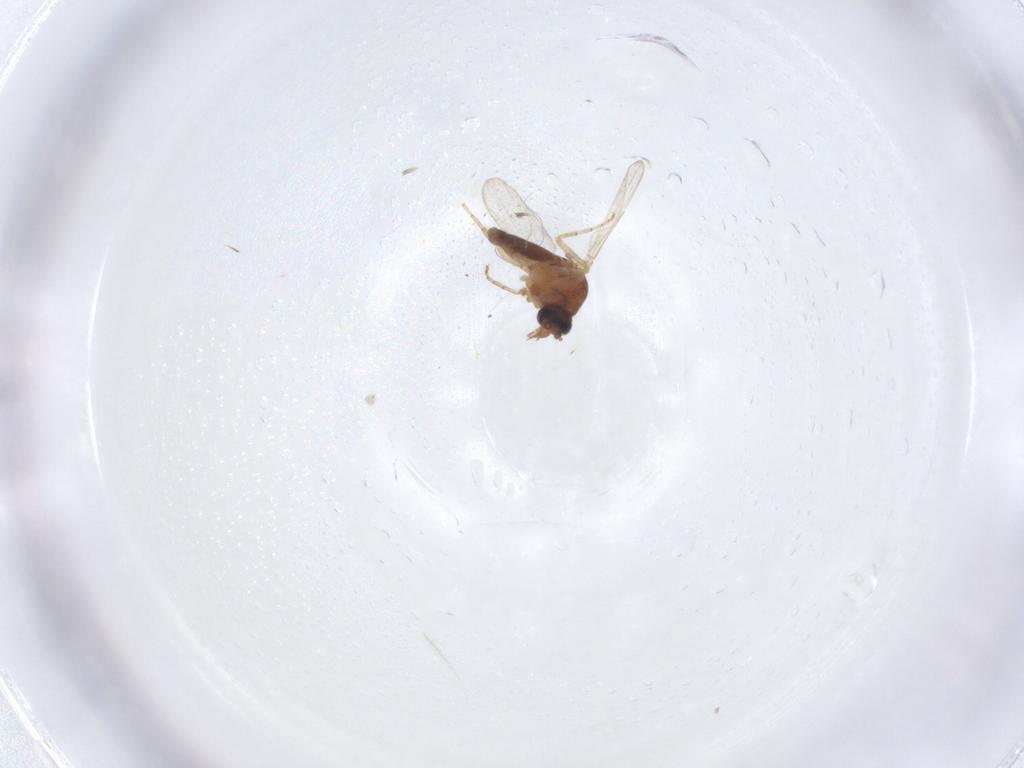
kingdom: Animalia
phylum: Arthropoda
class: Insecta
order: Diptera
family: Ceratopogonidae
